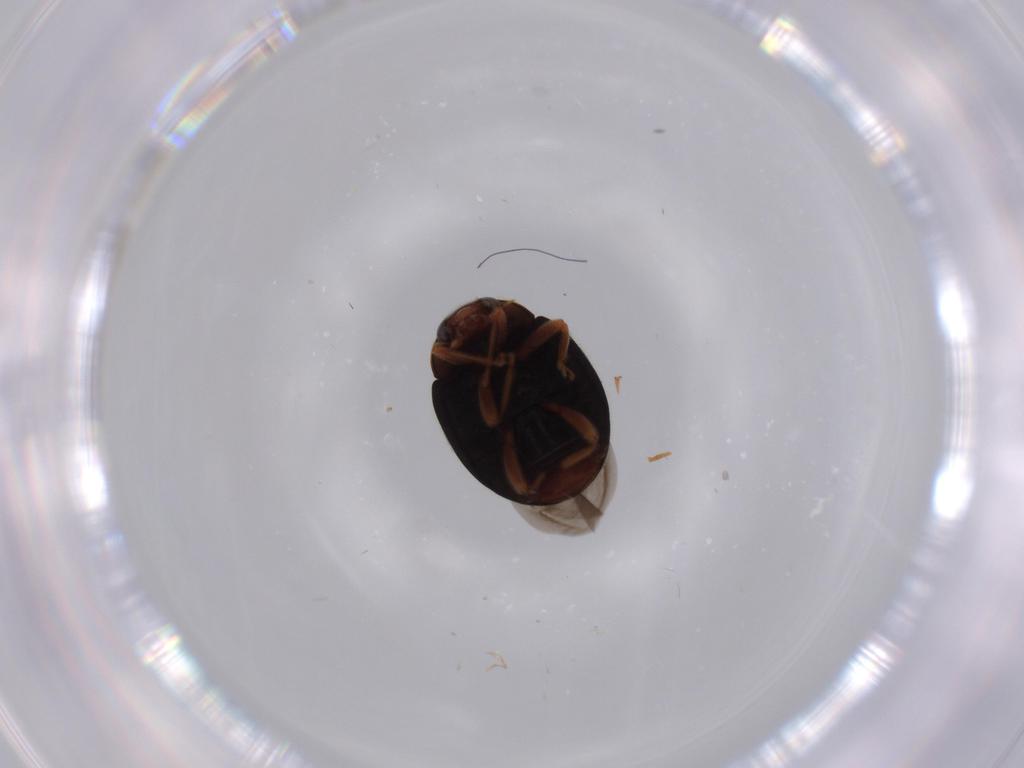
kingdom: Animalia
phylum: Arthropoda
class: Insecta
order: Coleoptera
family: Coccinellidae
